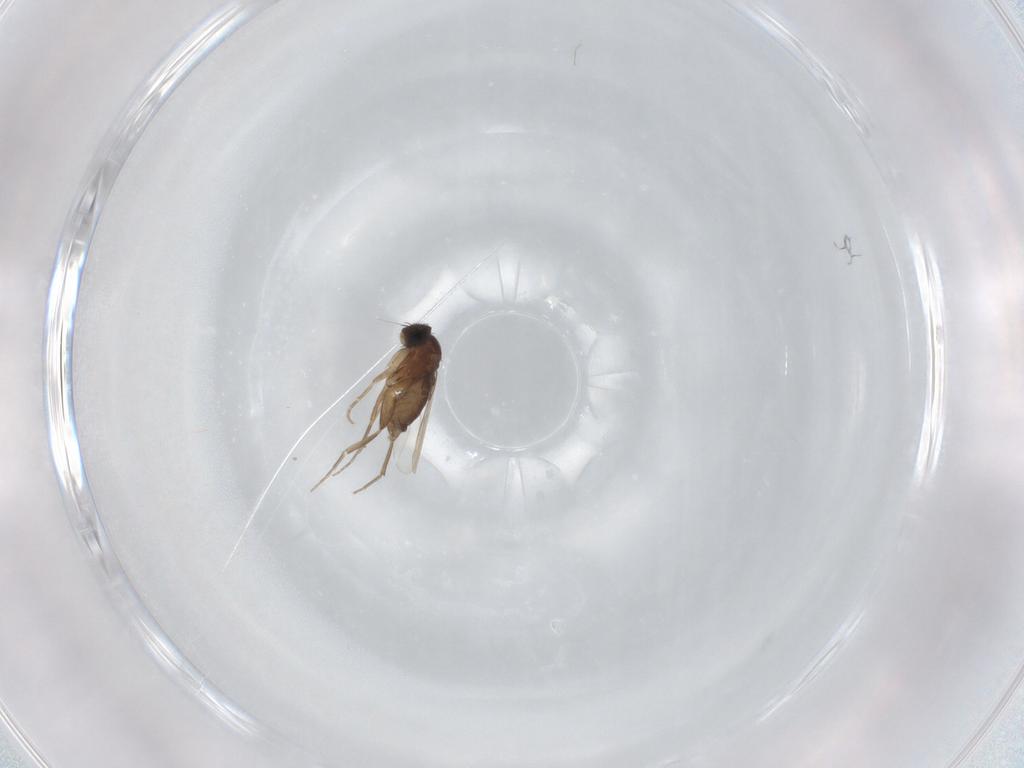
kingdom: Animalia
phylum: Arthropoda
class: Insecta
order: Diptera
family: Phoridae
